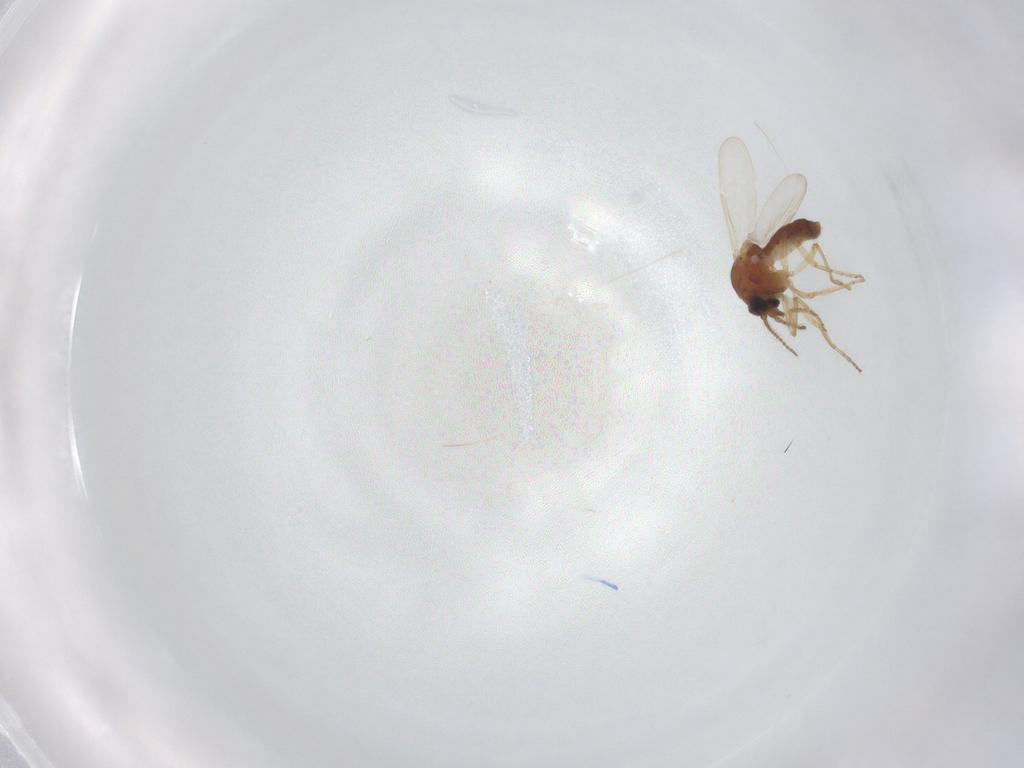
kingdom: Animalia
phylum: Arthropoda
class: Insecta
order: Diptera
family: Ceratopogonidae
